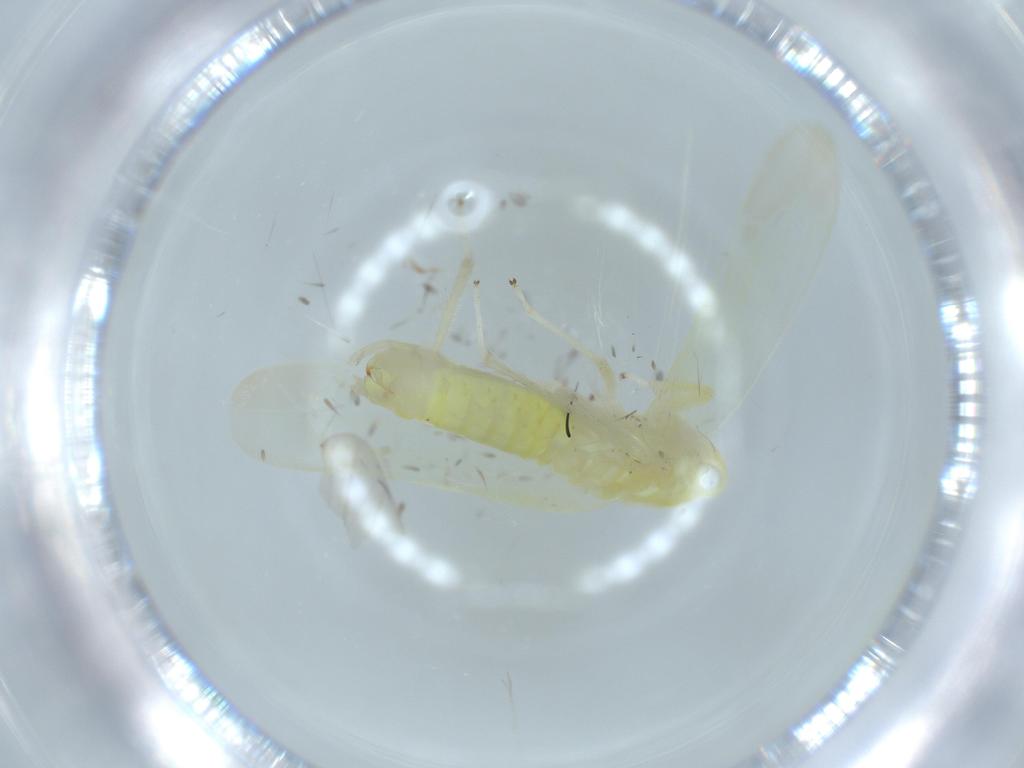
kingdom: Animalia
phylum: Arthropoda
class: Insecta
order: Hemiptera
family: Cicadellidae
